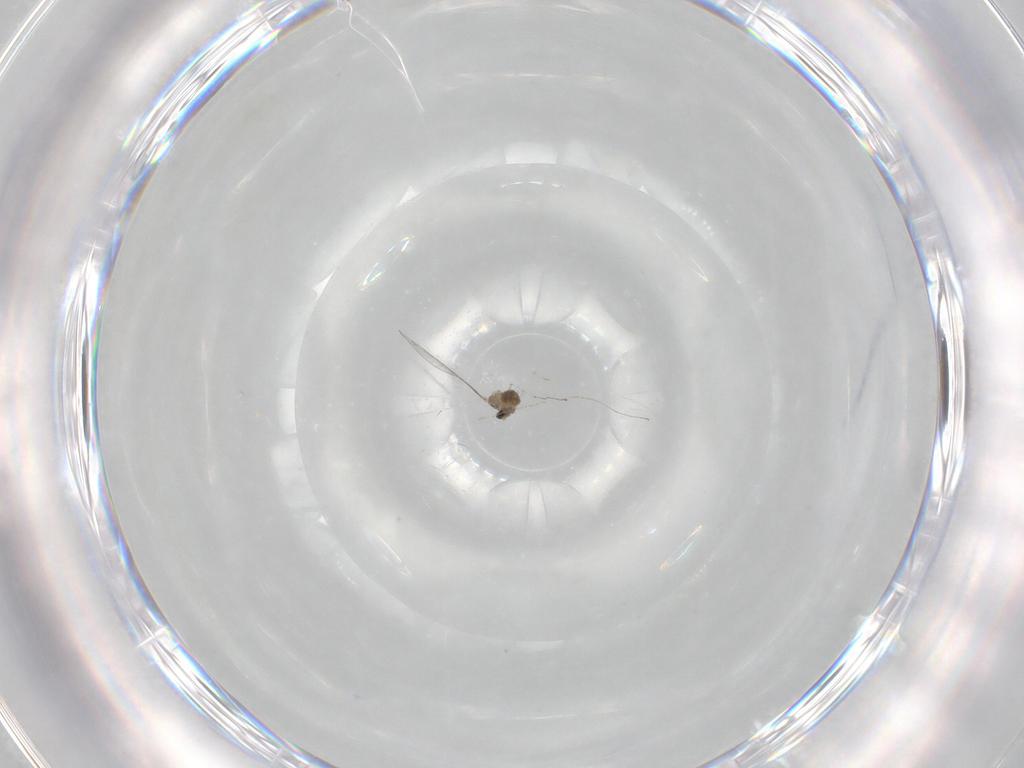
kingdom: Animalia
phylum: Arthropoda
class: Insecta
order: Diptera
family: Cecidomyiidae
